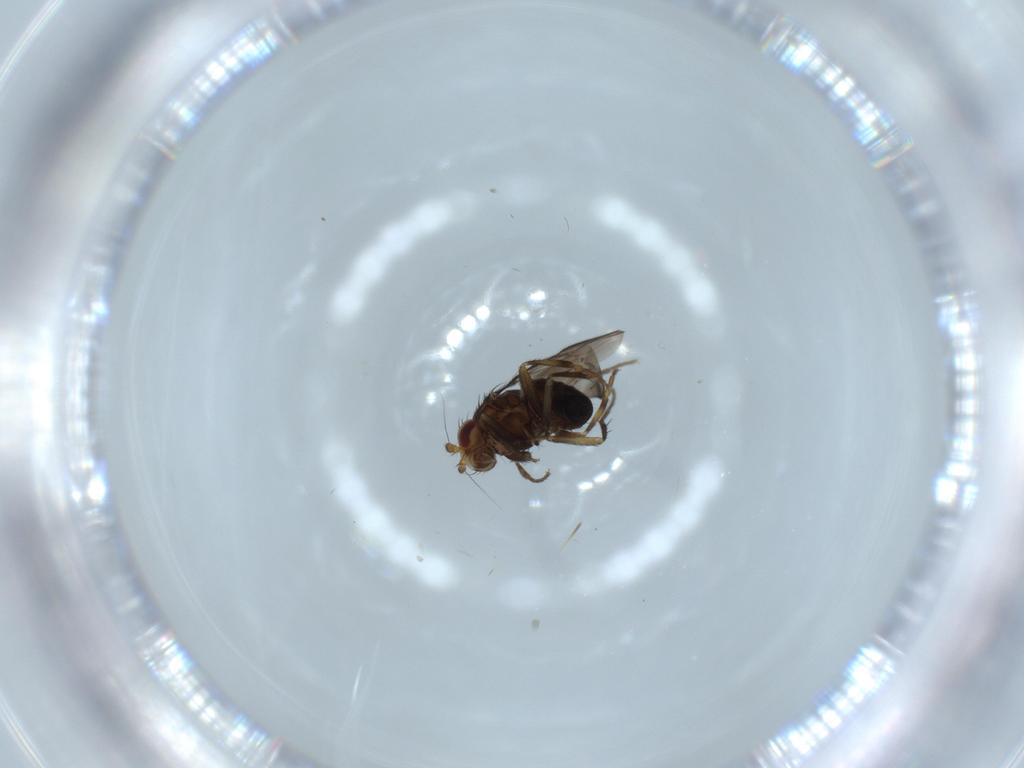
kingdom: Animalia
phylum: Arthropoda
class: Insecta
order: Diptera
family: Sphaeroceridae
